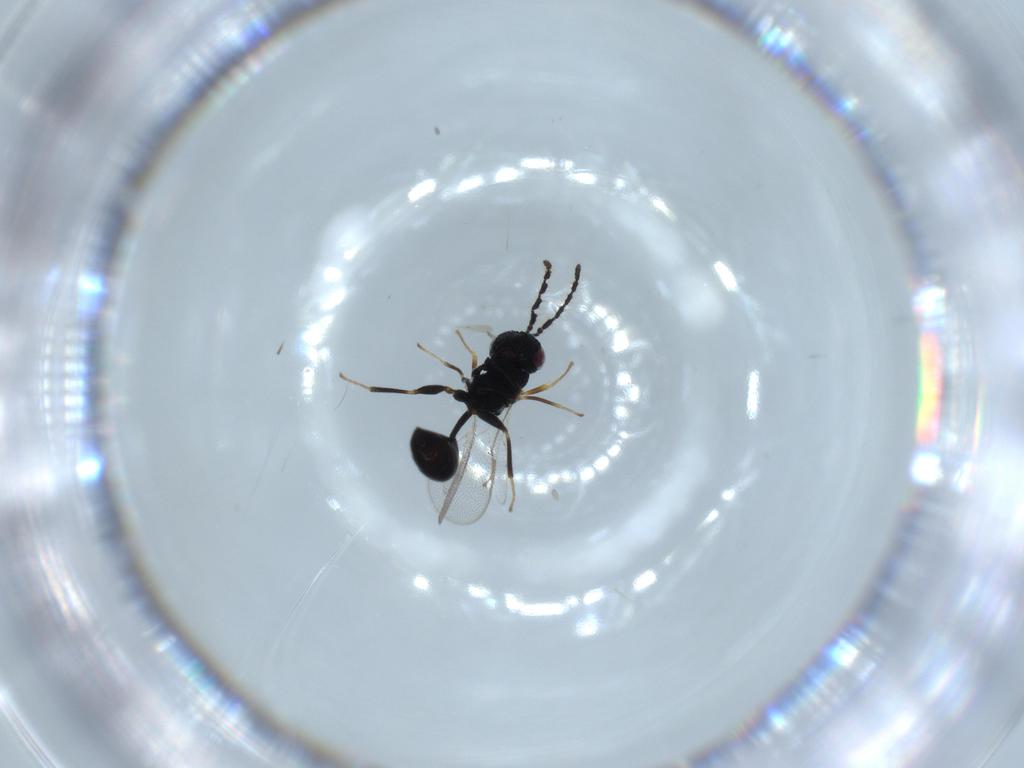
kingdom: Animalia
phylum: Arthropoda
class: Insecta
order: Hymenoptera
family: Eurytomidae
